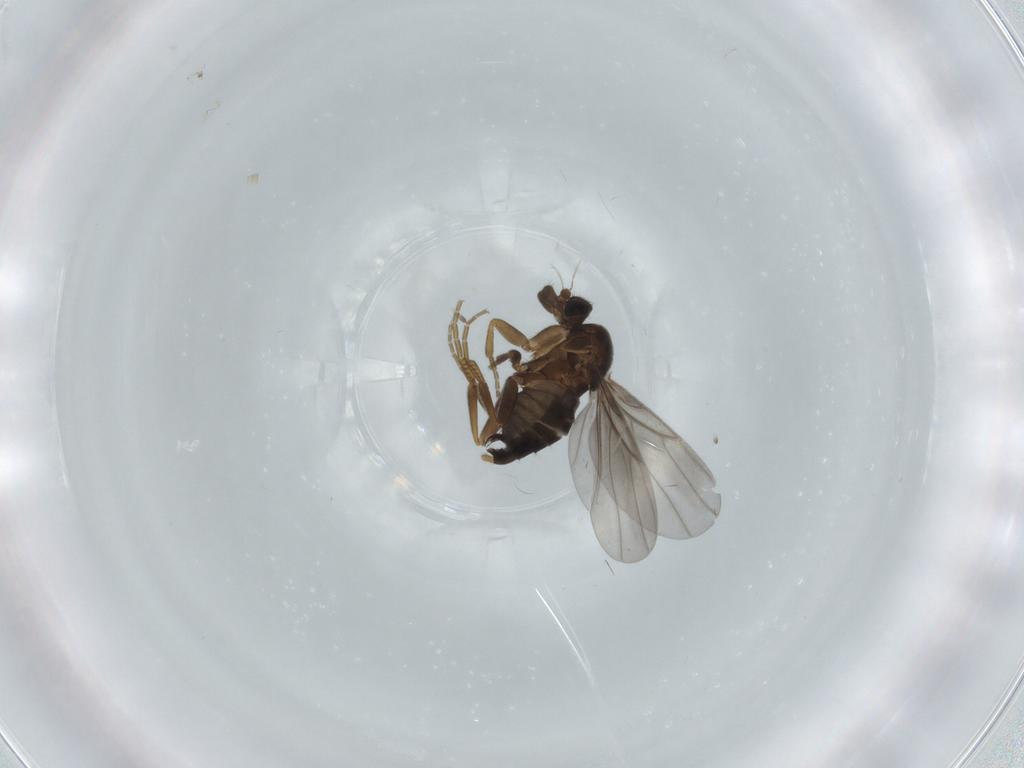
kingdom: Animalia
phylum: Arthropoda
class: Insecta
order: Diptera
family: Phoridae
